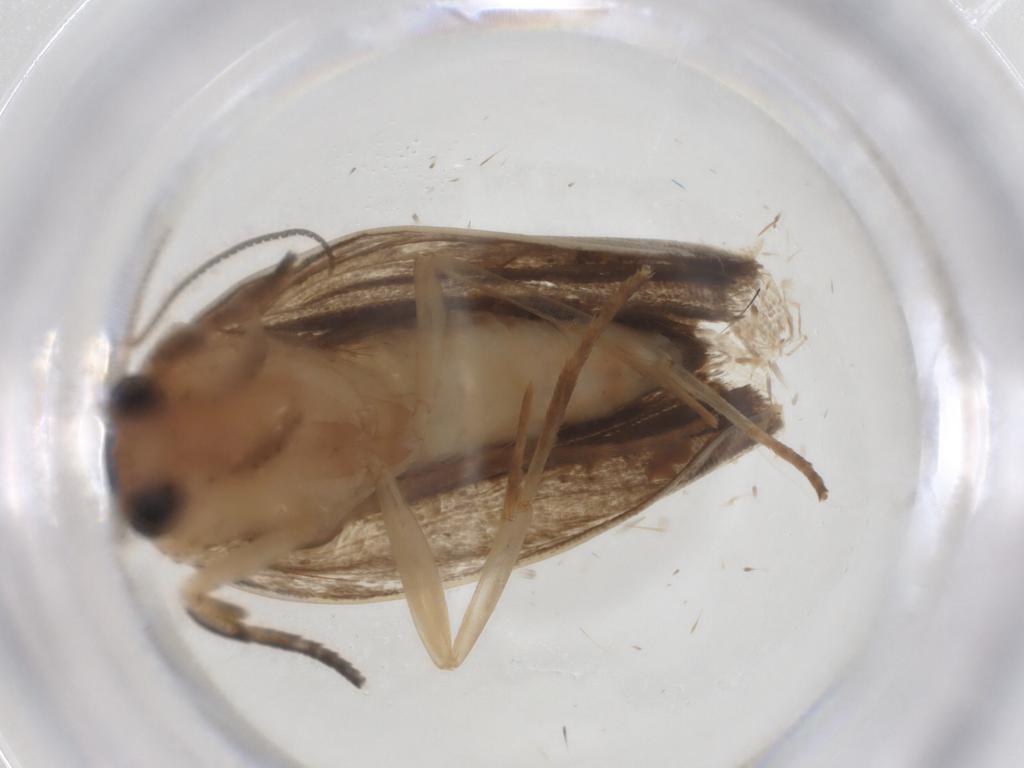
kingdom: Animalia
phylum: Arthropoda
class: Insecta
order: Lepidoptera
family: Immidae
